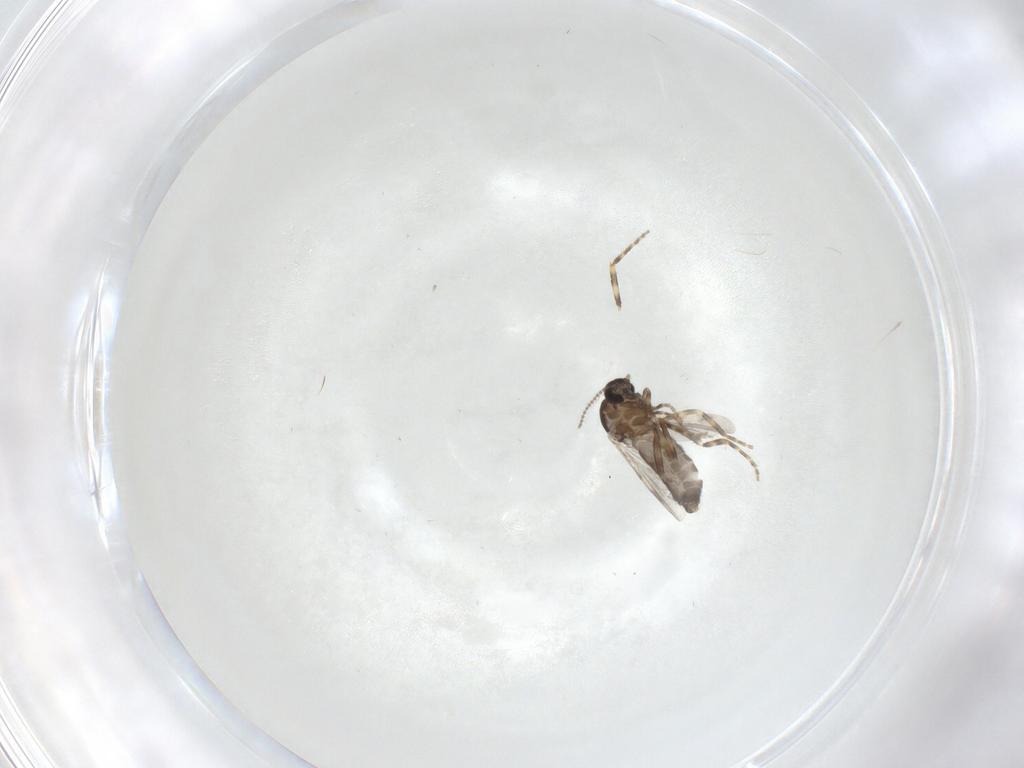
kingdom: Animalia
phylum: Arthropoda
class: Insecta
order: Diptera
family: Ceratopogonidae
